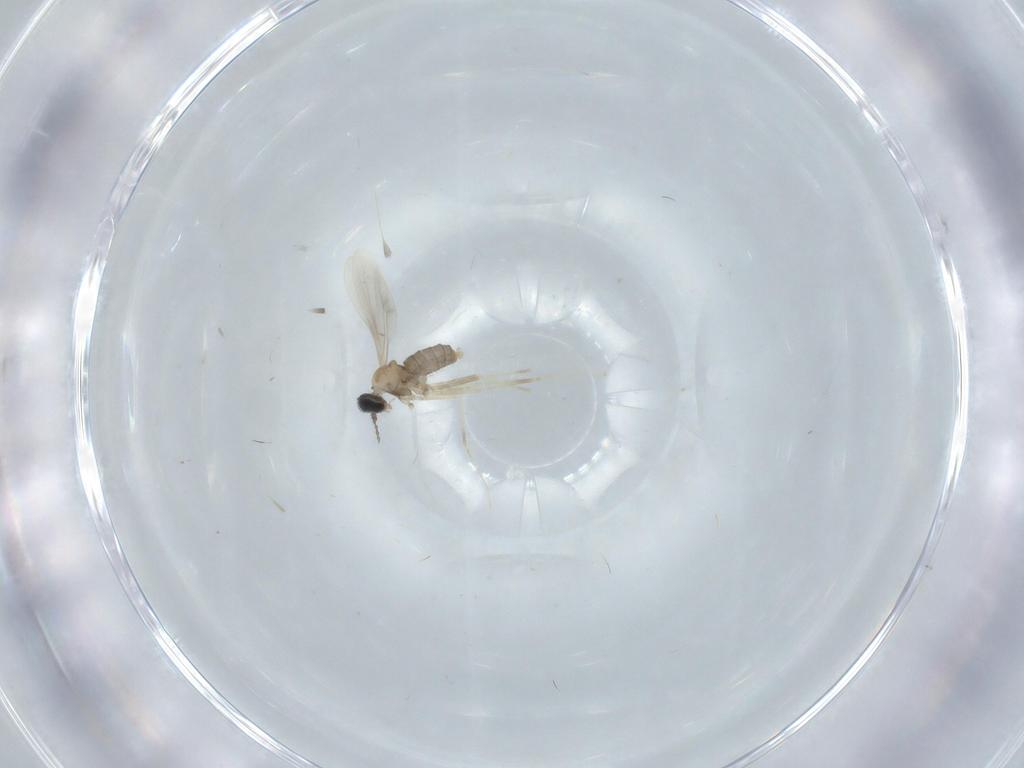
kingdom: Animalia
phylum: Arthropoda
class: Insecta
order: Diptera
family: Cecidomyiidae
